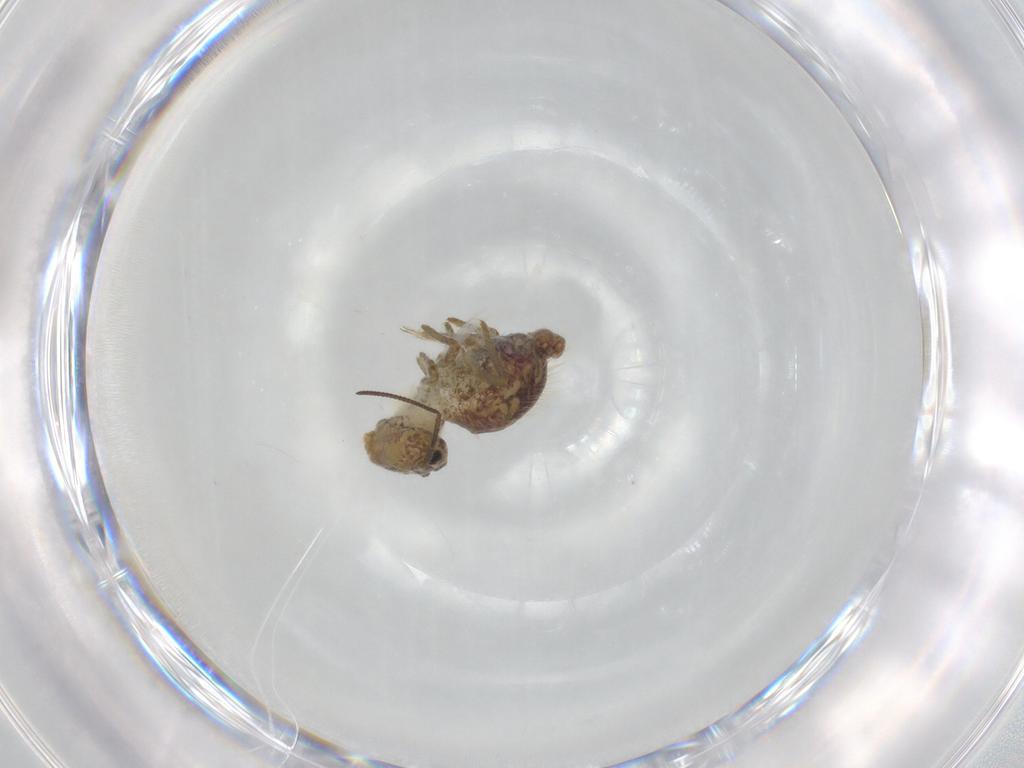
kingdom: Animalia
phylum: Arthropoda
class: Collembola
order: Symphypleona
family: Sminthuridae
